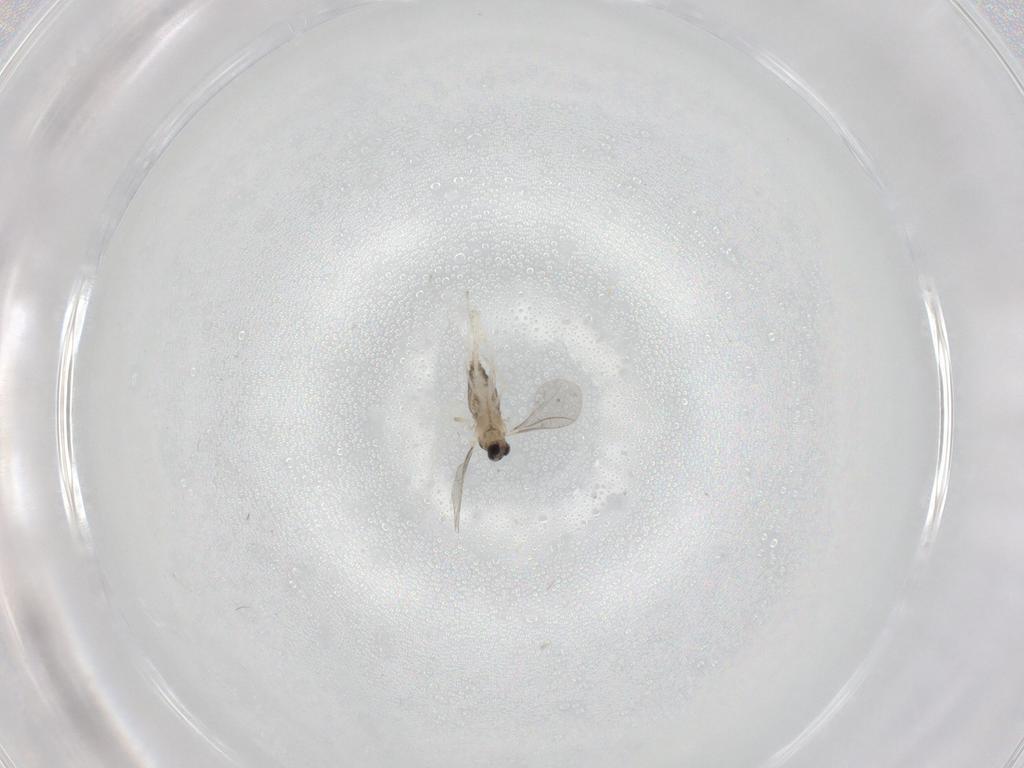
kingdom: Animalia
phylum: Arthropoda
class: Insecta
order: Diptera
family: Cecidomyiidae
